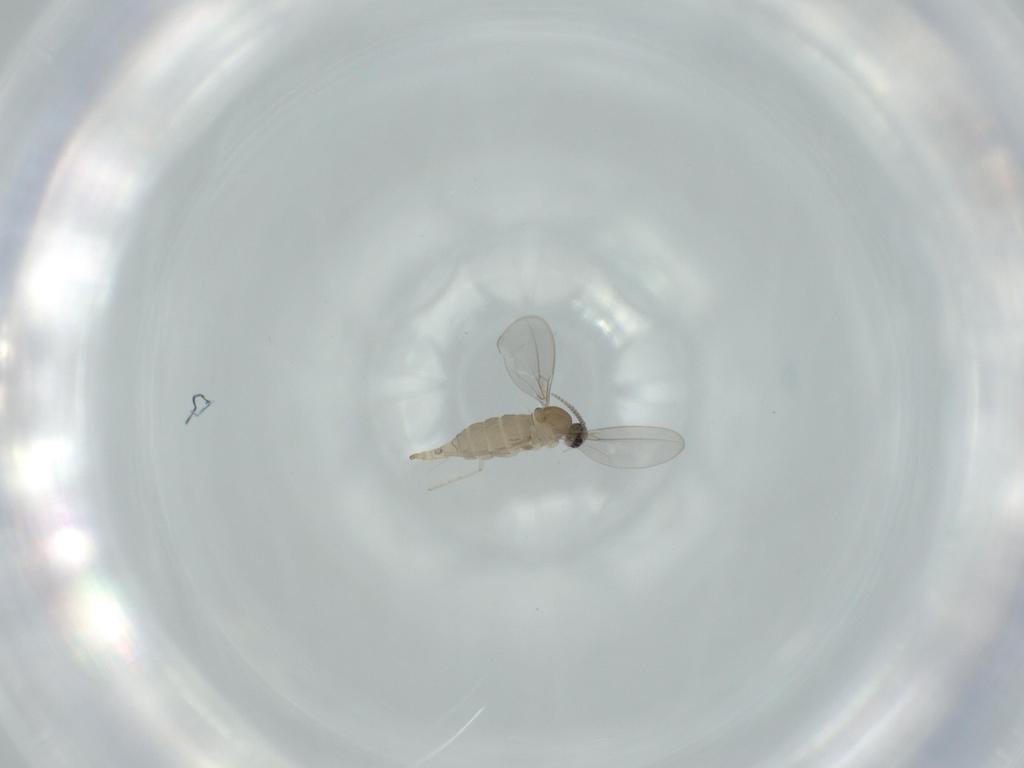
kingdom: Animalia
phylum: Arthropoda
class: Insecta
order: Diptera
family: Cecidomyiidae
